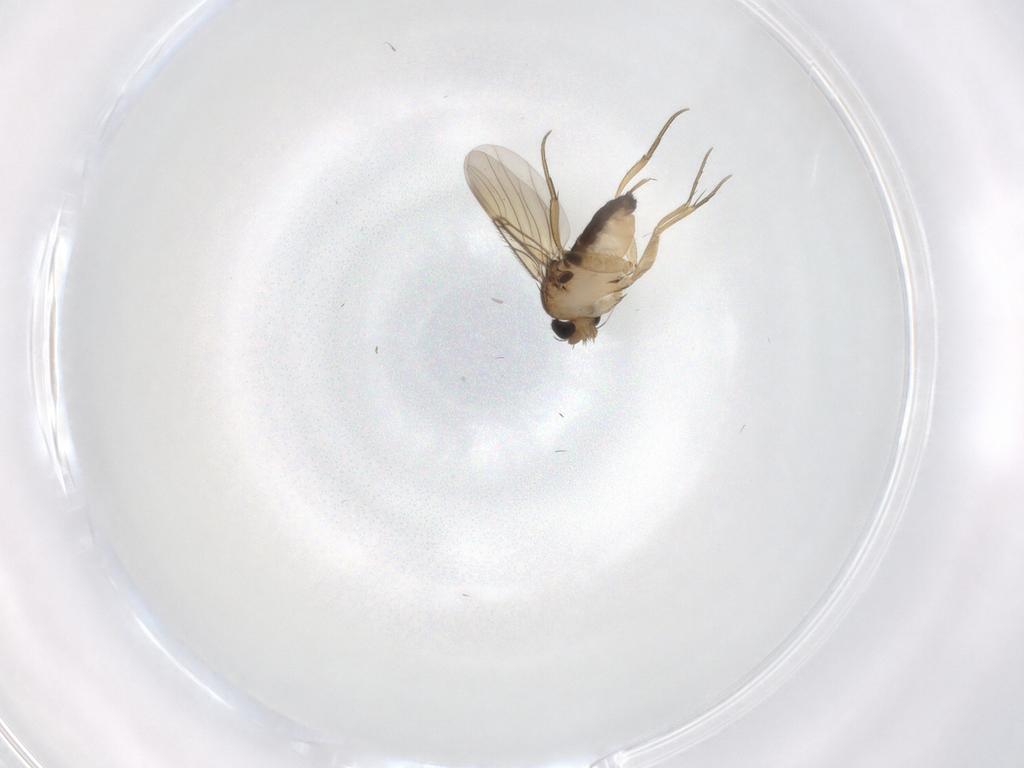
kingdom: Animalia
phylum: Arthropoda
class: Insecta
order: Diptera
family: Phoridae
